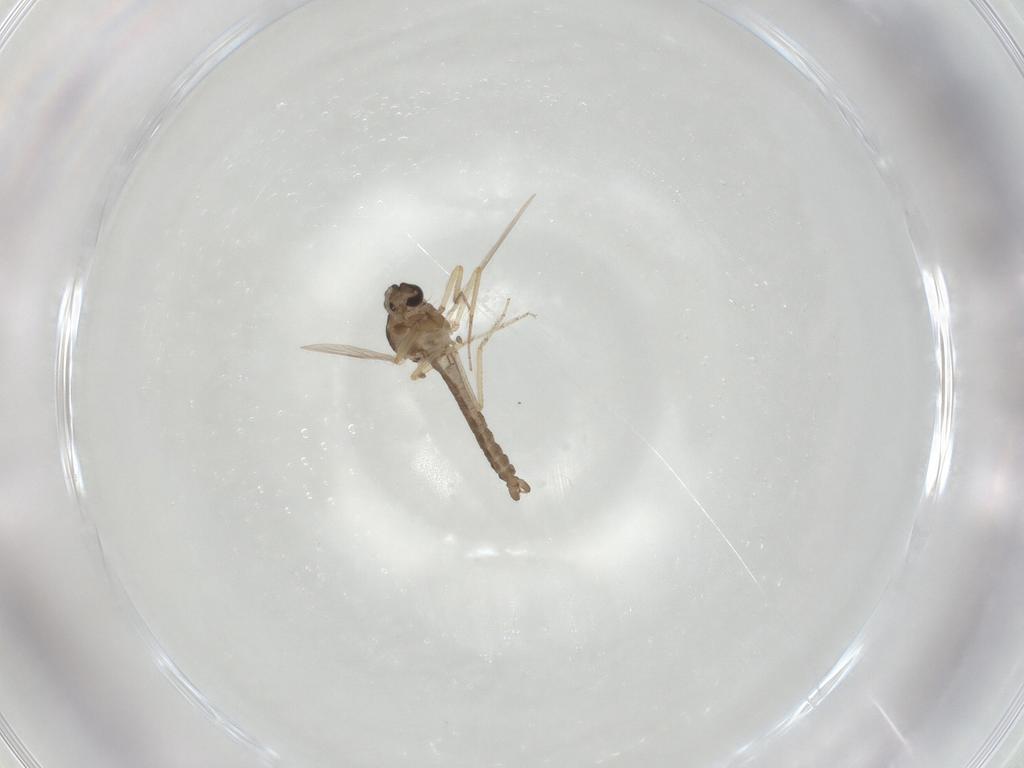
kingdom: Animalia
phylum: Arthropoda
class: Insecta
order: Diptera
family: Ceratopogonidae
